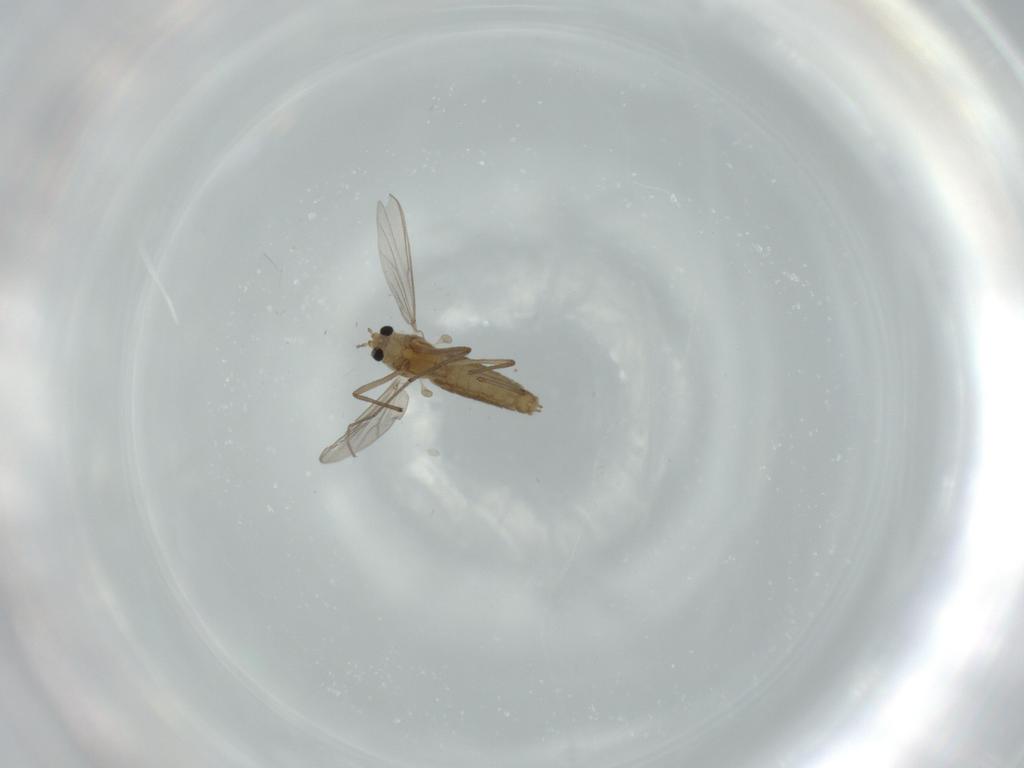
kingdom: Animalia
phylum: Arthropoda
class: Insecta
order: Diptera
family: Chironomidae
